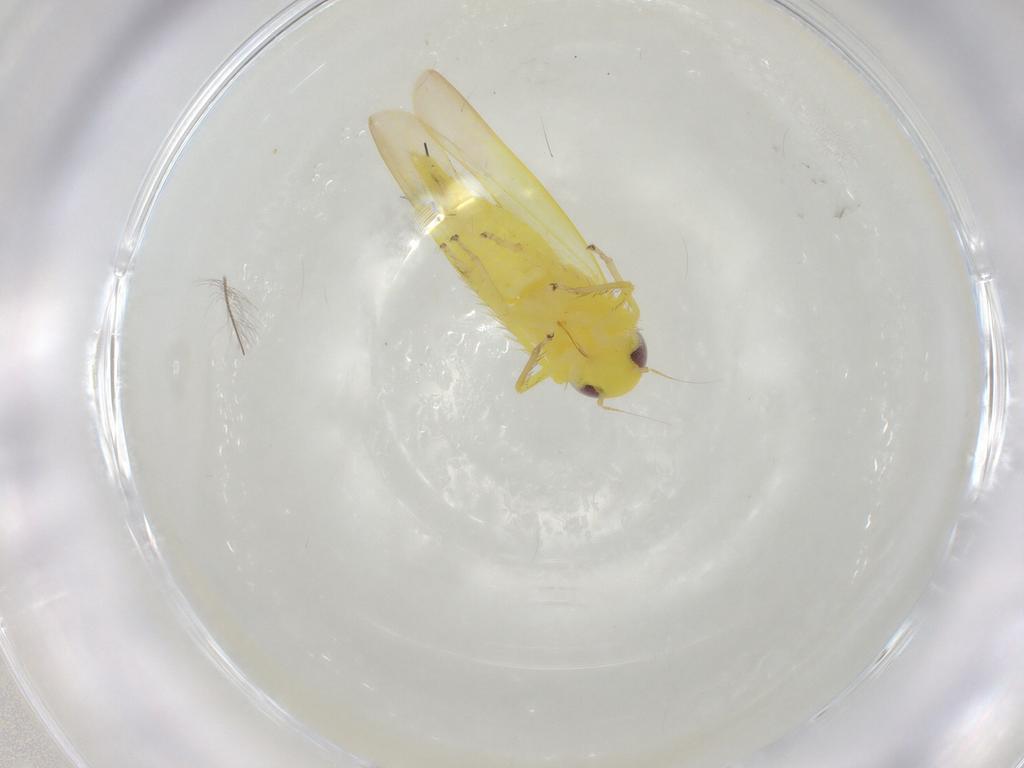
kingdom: Animalia
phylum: Arthropoda
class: Insecta
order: Hemiptera
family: Cicadellidae
